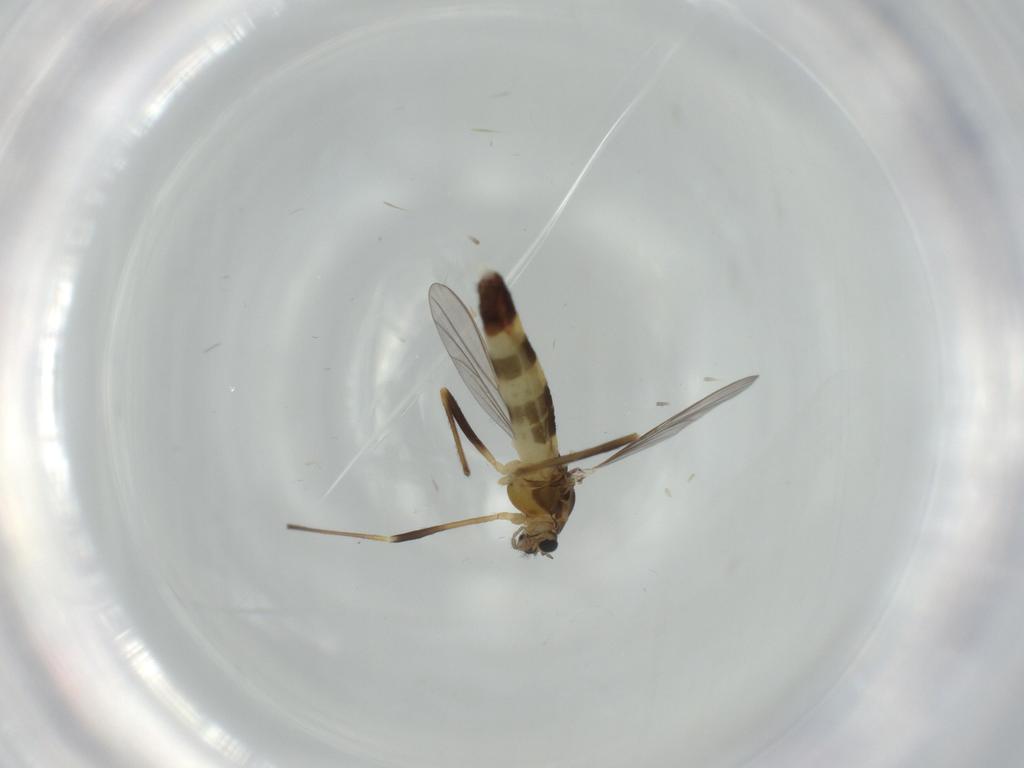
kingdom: Animalia
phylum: Arthropoda
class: Insecta
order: Diptera
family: Chironomidae
